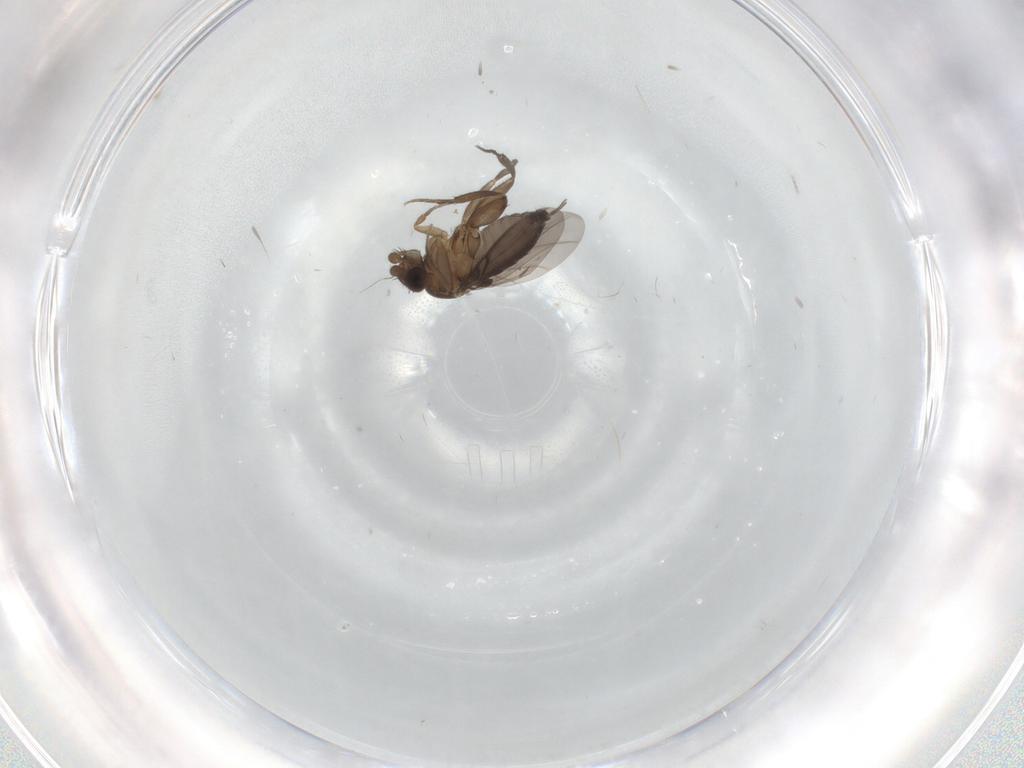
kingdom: Animalia
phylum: Arthropoda
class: Insecta
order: Diptera
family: Phoridae
